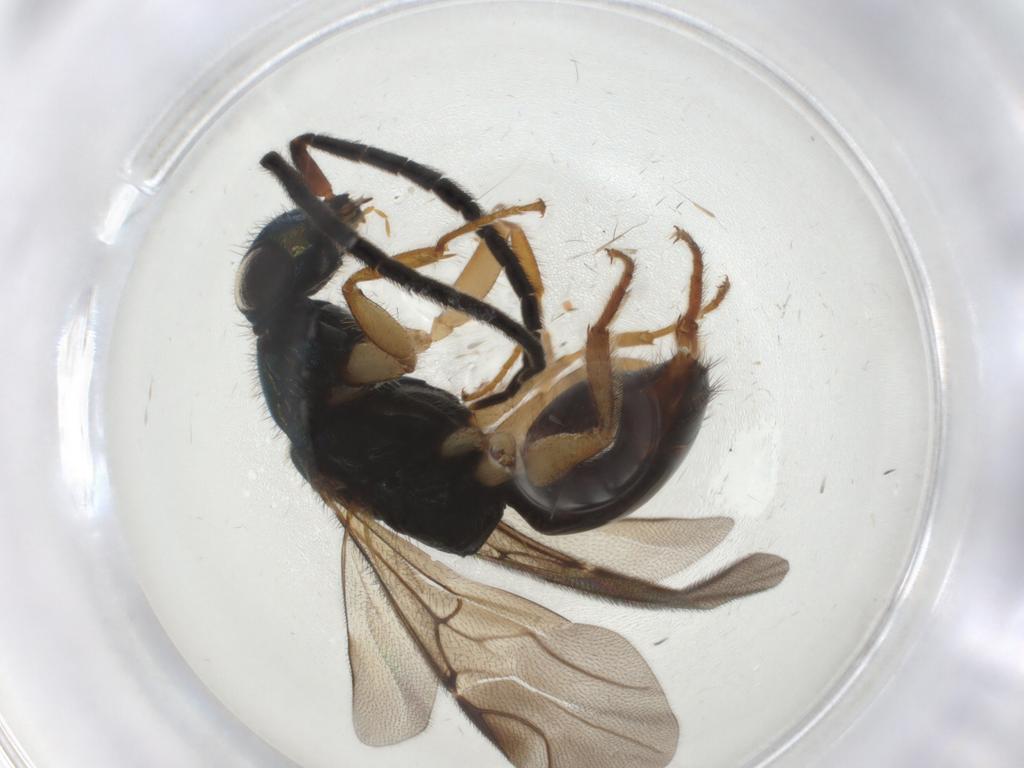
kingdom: Animalia
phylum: Arthropoda
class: Insecta
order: Hymenoptera
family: Chrysididae
